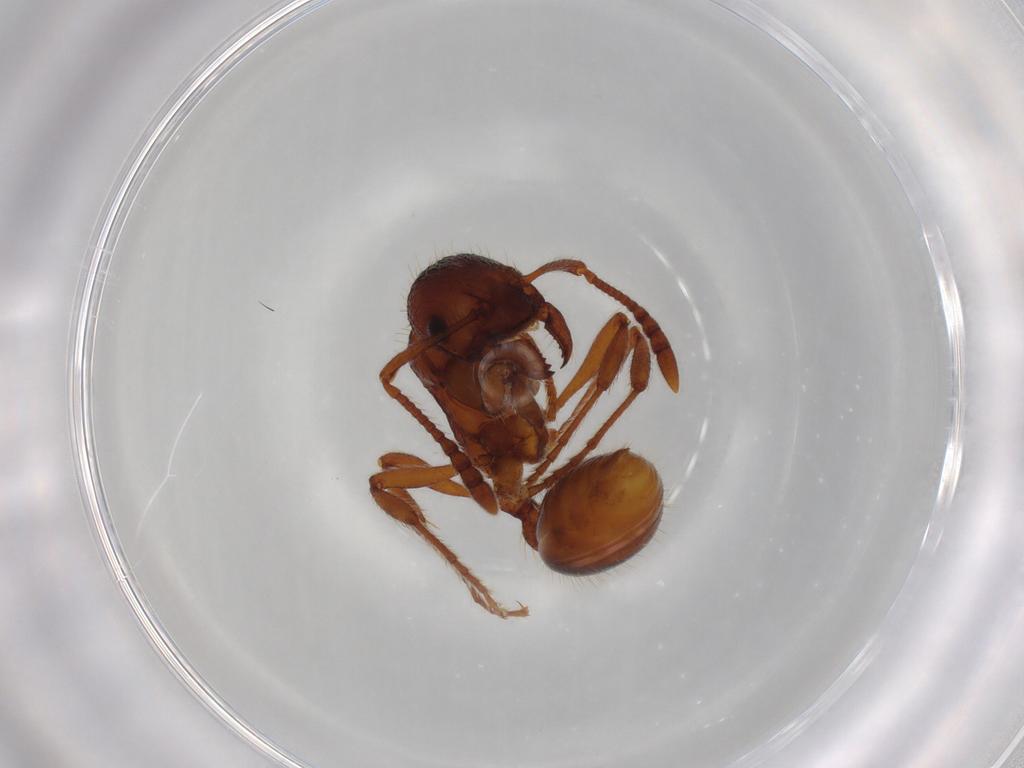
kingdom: Animalia
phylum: Arthropoda
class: Insecta
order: Hymenoptera
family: Formicidae
